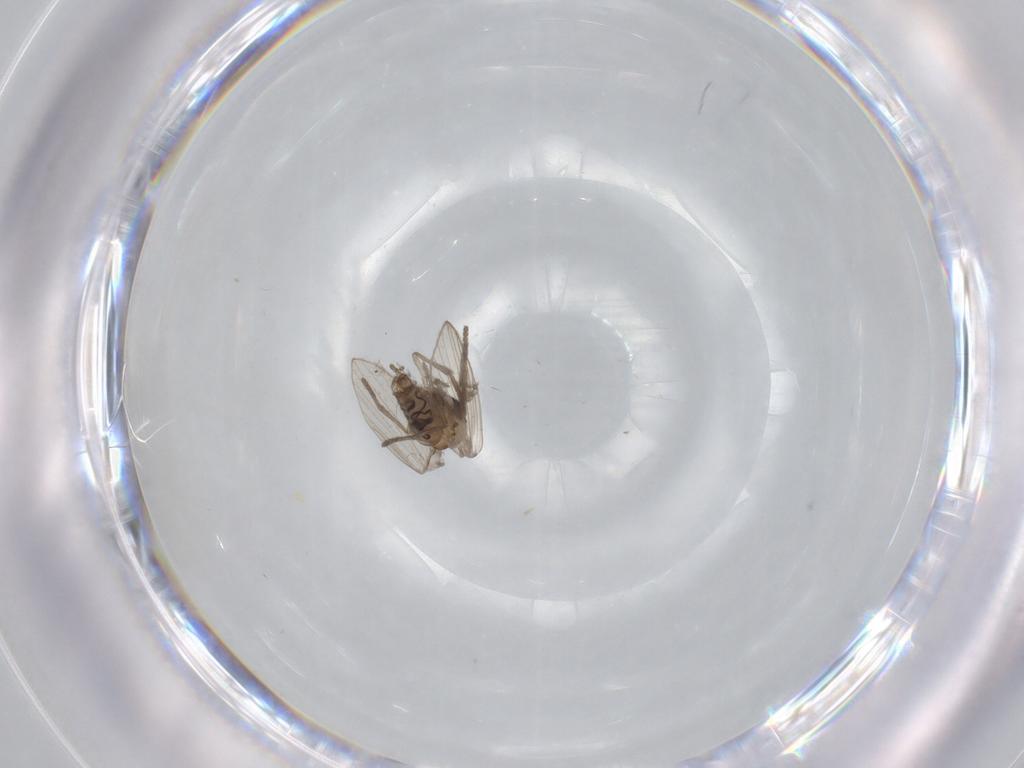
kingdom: Animalia
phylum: Arthropoda
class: Insecta
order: Diptera
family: Psychodidae
